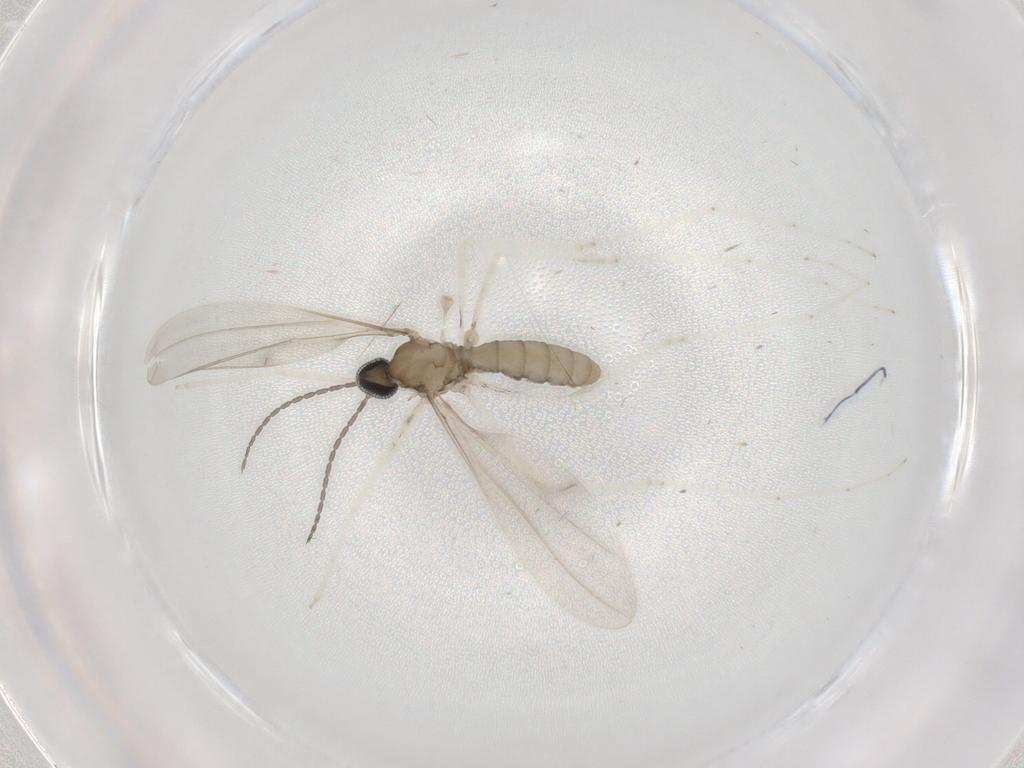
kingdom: Animalia
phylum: Arthropoda
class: Insecta
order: Diptera
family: Cecidomyiidae
